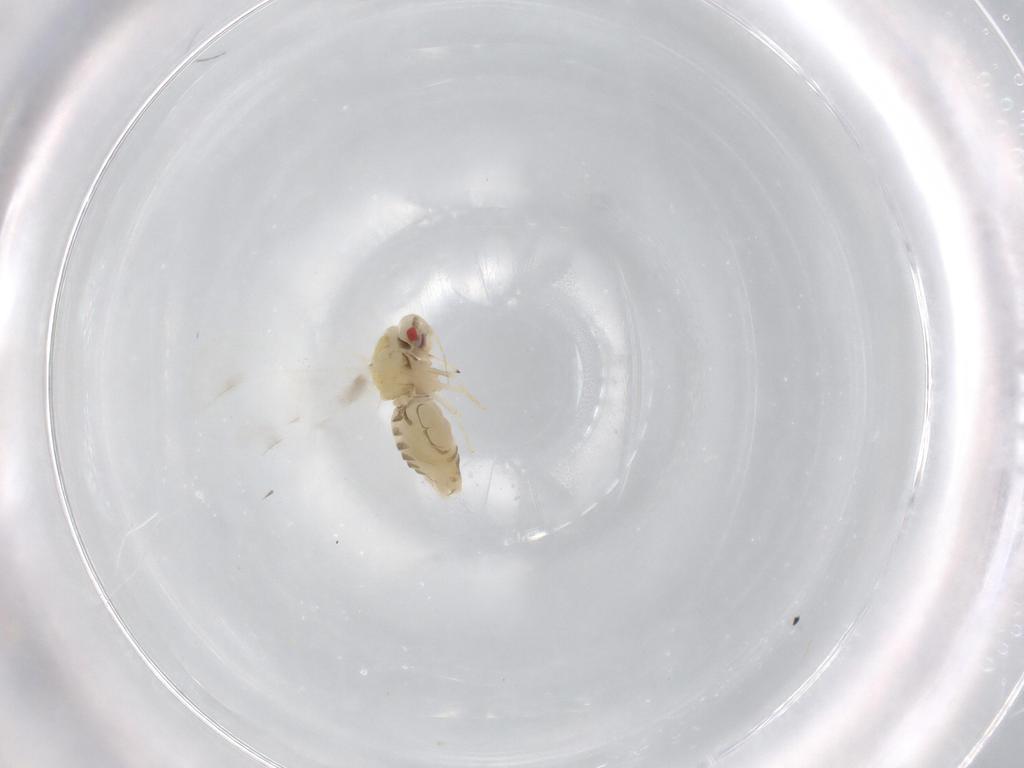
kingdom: Animalia
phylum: Arthropoda
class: Insecta
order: Hemiptera
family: Aleyrodidae
